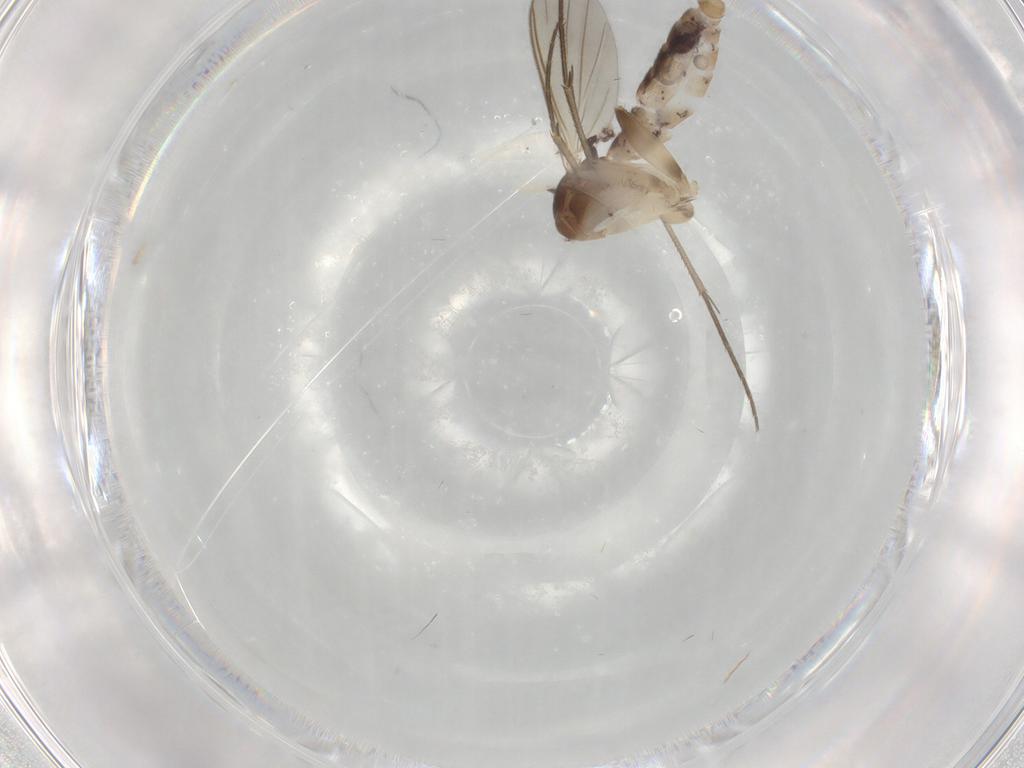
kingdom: Animalia
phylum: Arthropoda
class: Insecta
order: Diptera
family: Mycetophilidae
